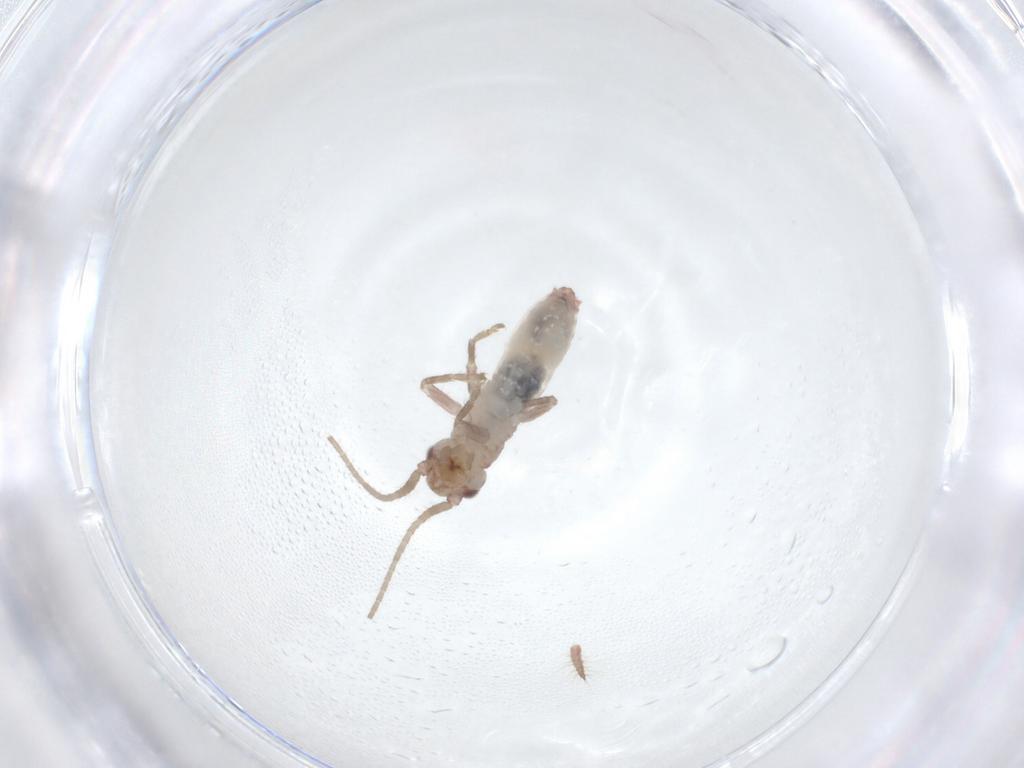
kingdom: Animalia
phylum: Arthropoda
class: Insecta
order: Orthoptera
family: Mogoplistidae
